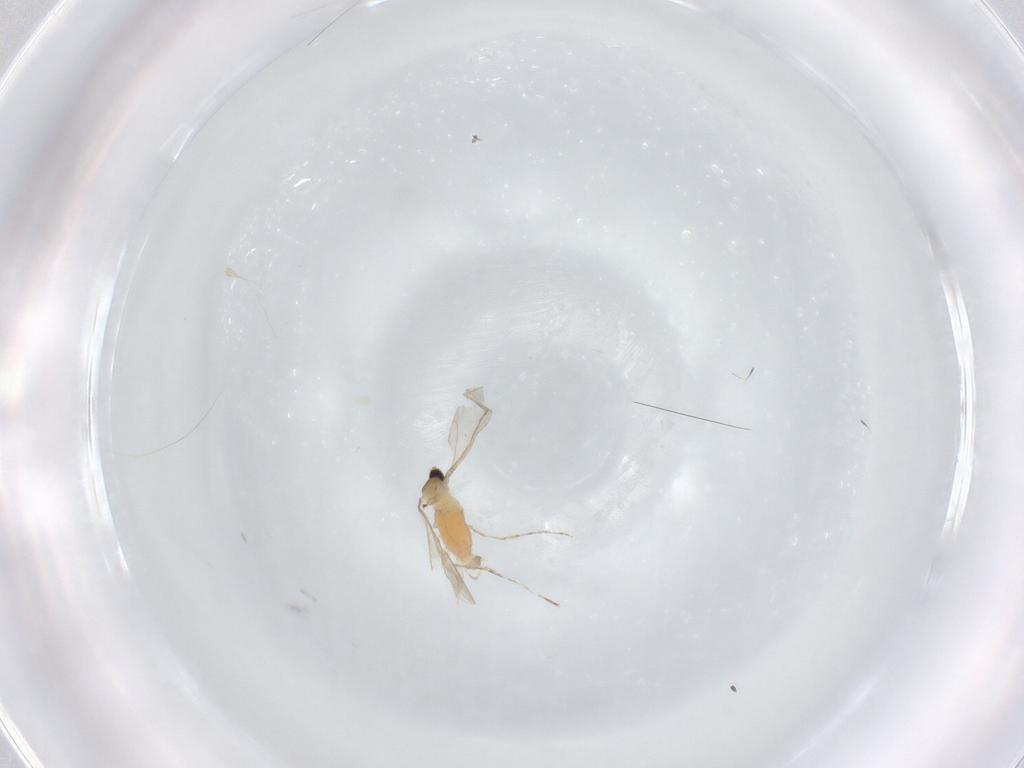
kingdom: Animalia
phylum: Arthropoda
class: Insecta
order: Diptera
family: Cecidomyiidae
